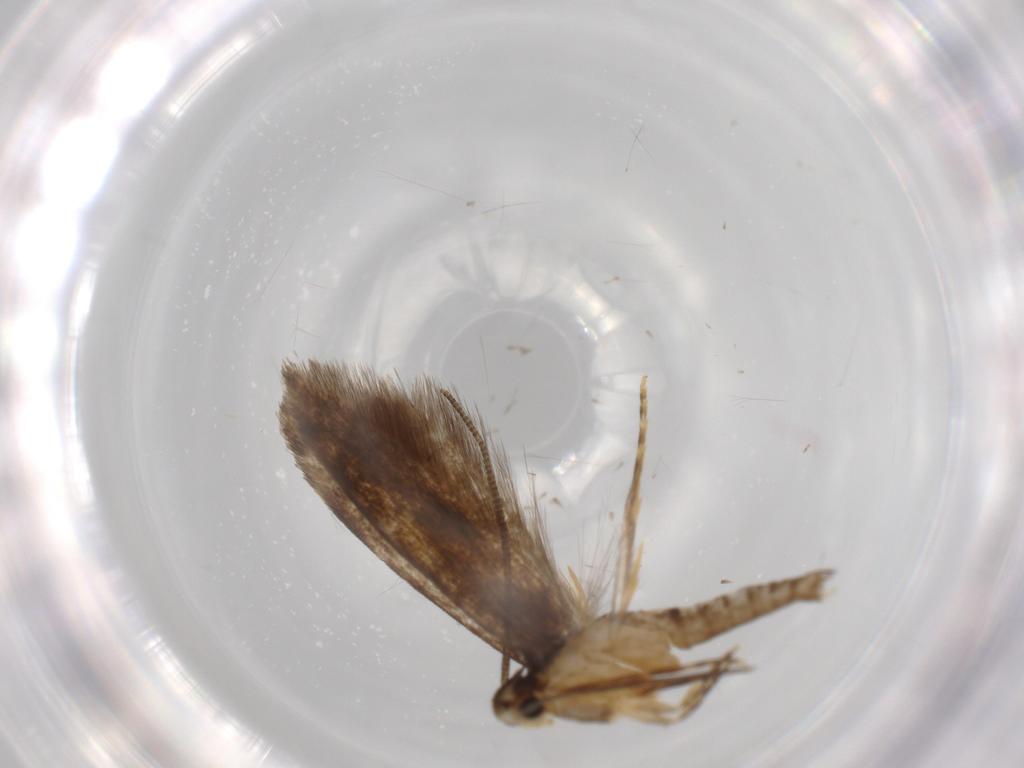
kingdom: Animalia
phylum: Arthropoda
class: Insecta
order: Lepidoptera
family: Tineidae
